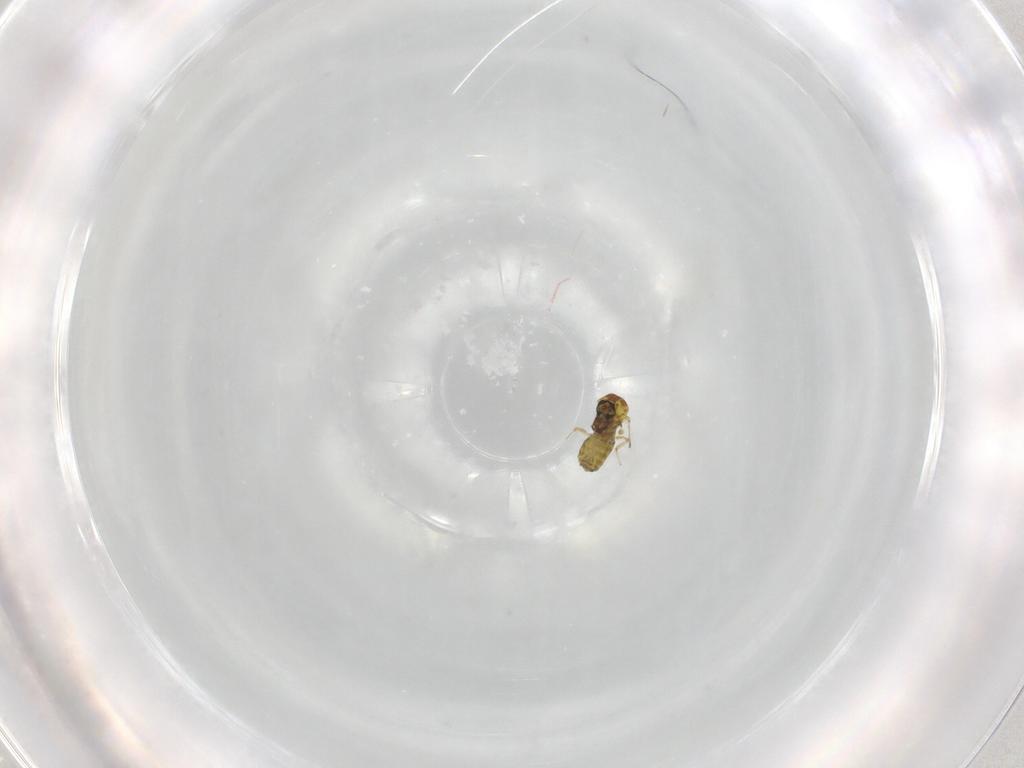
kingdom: Animalia
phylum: Arthropoda
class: Insecta
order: Diptera
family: Ceratopogonidae
